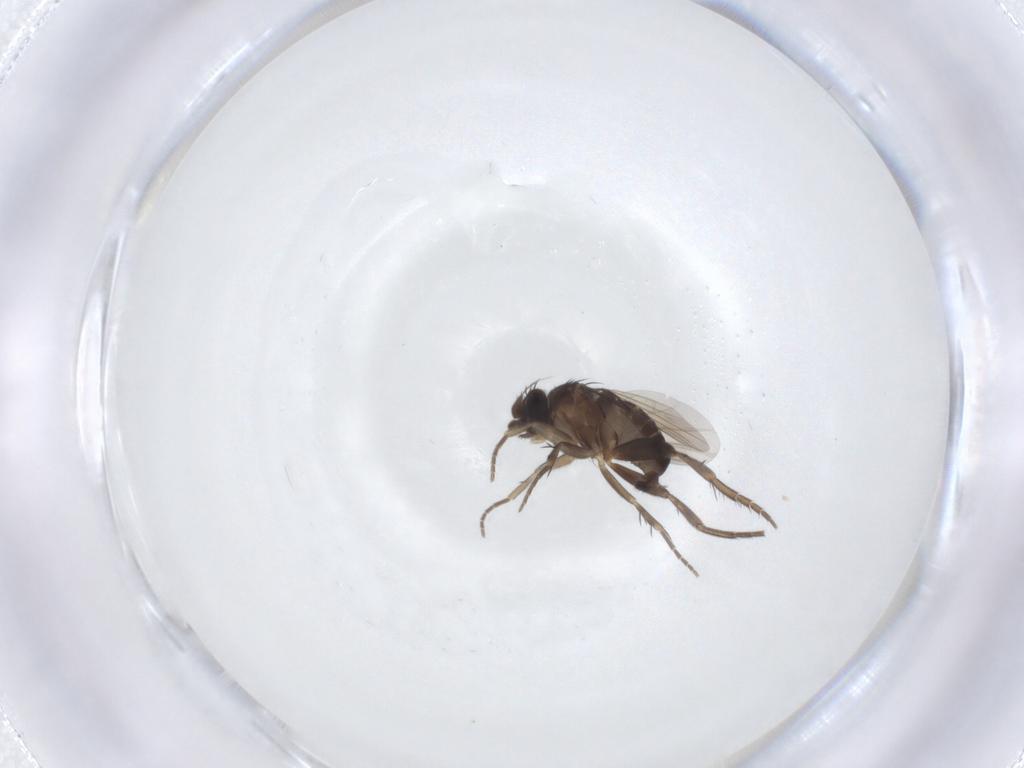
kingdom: Animalia
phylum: Arthropoda
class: Insecta
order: Diptera
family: Phoridae
